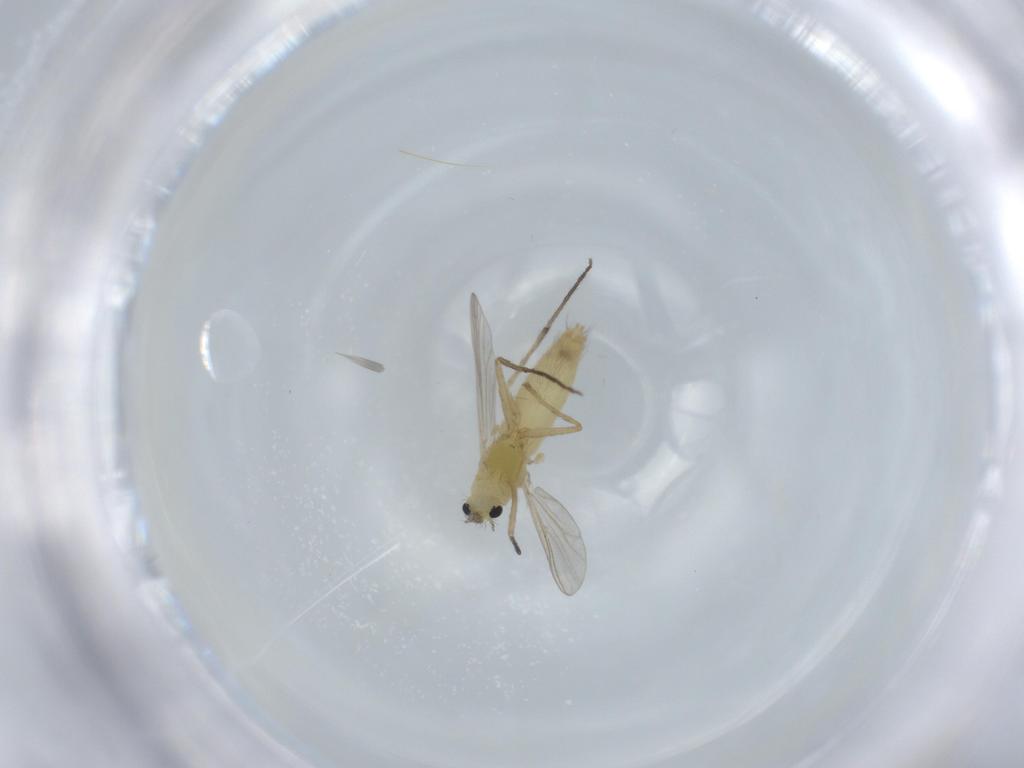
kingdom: Animalia
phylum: Arthropoda
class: Insecta
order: Diptera
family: Chironomidae
